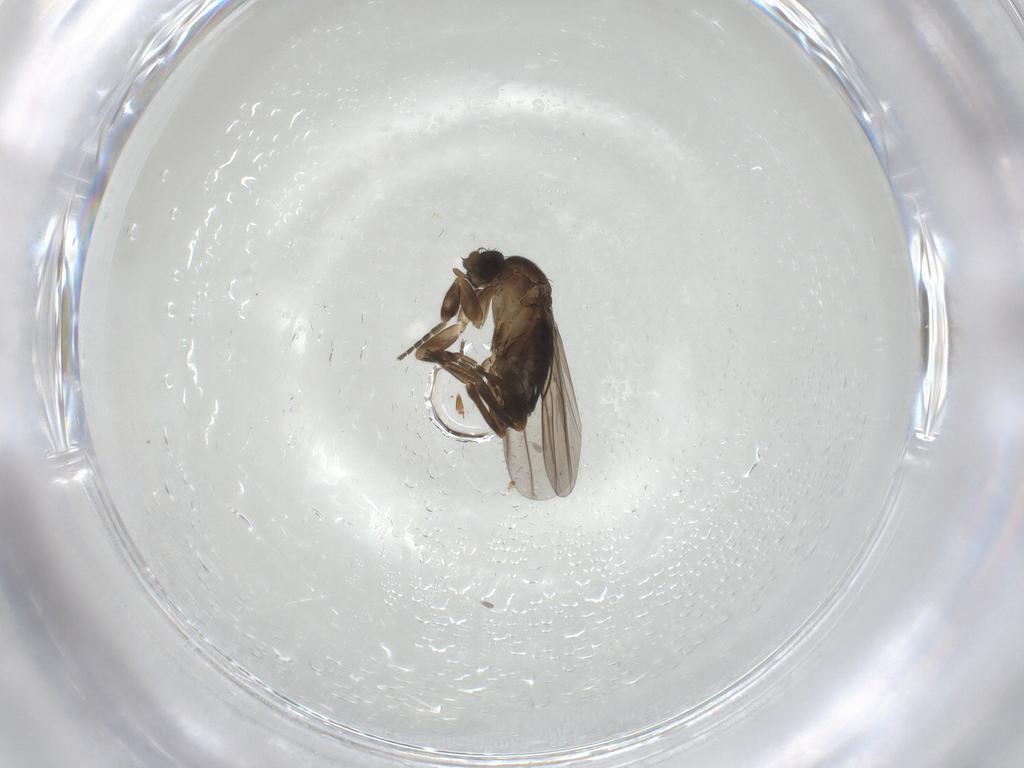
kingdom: Animalia
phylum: Arthropoda
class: Insecta
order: Diptera
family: Phoridae
